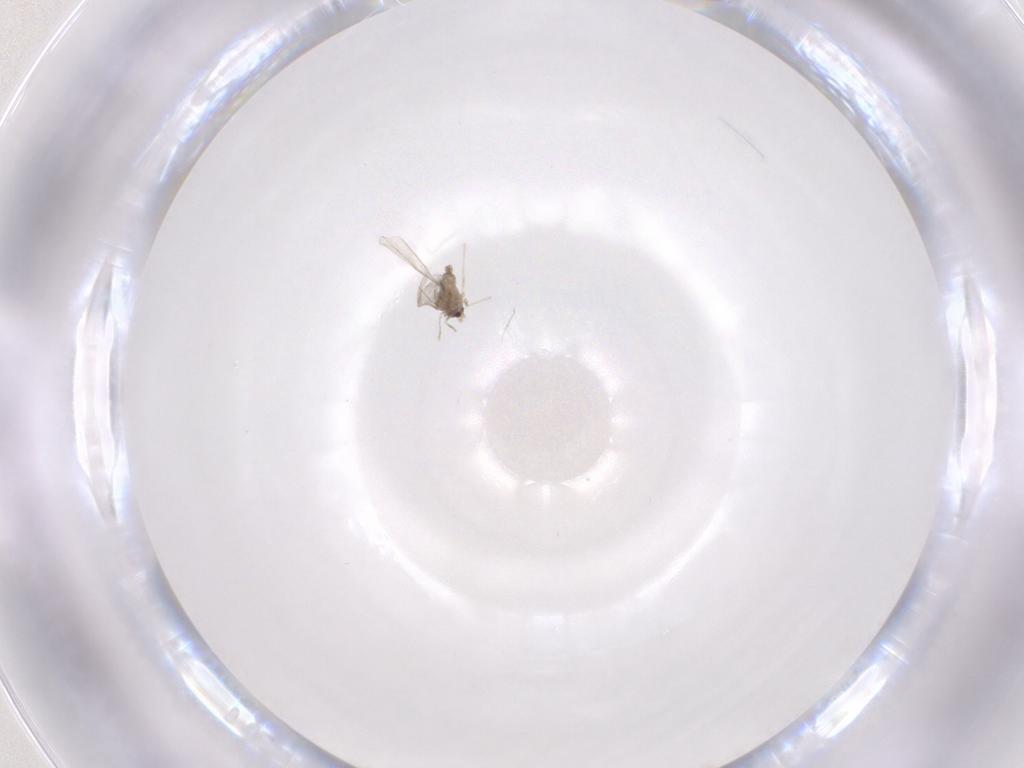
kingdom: Animalia
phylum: Arthropoda
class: Insecta
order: Diptera
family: Cecidomyiidae
